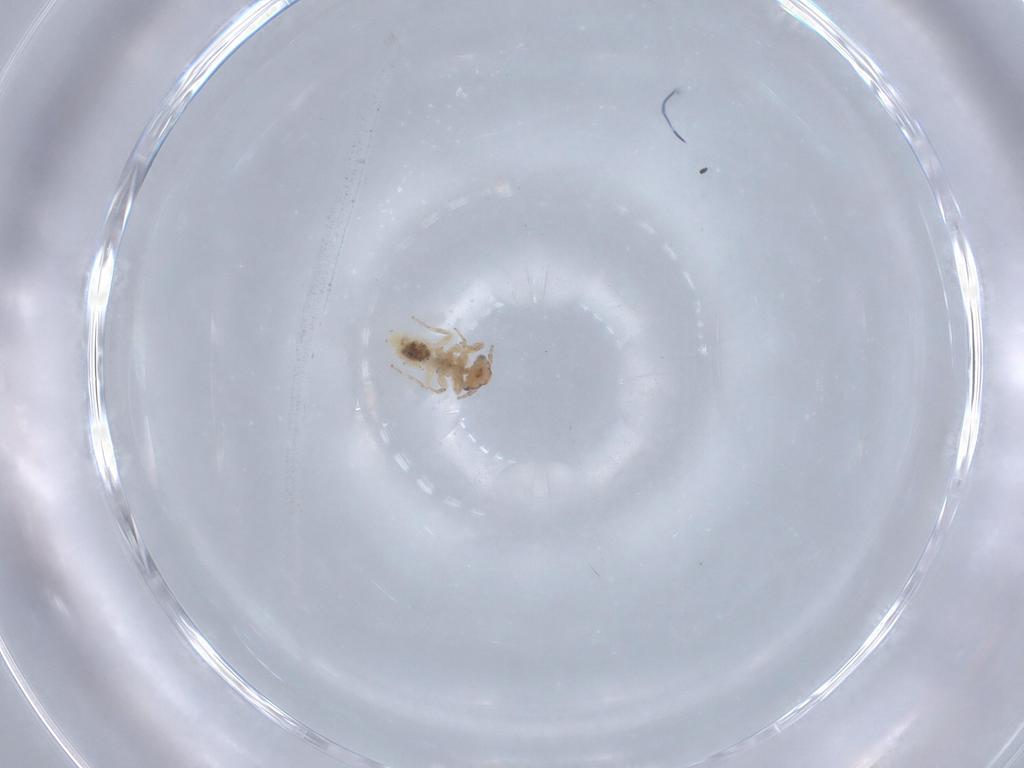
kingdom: Animalia
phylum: Arthropoda
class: Insecta
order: Psocodea
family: Lepidopsocidae
